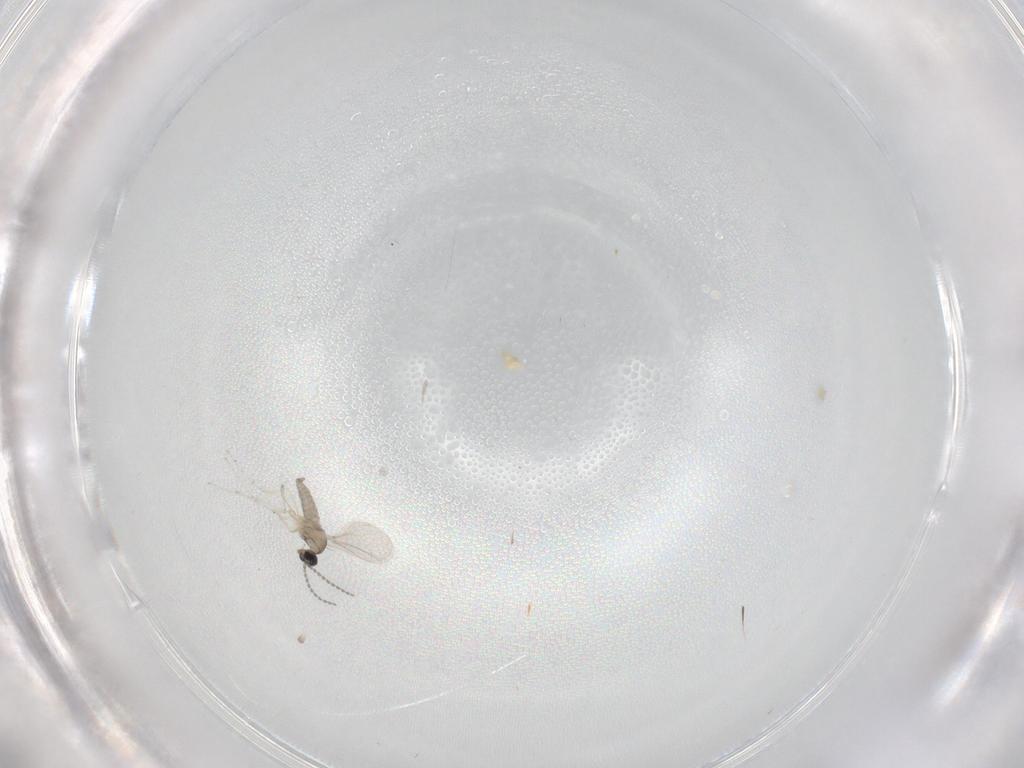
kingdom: Animalia
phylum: Arthropoda
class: Insecta
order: Diptera
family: Cecidomyiidae
